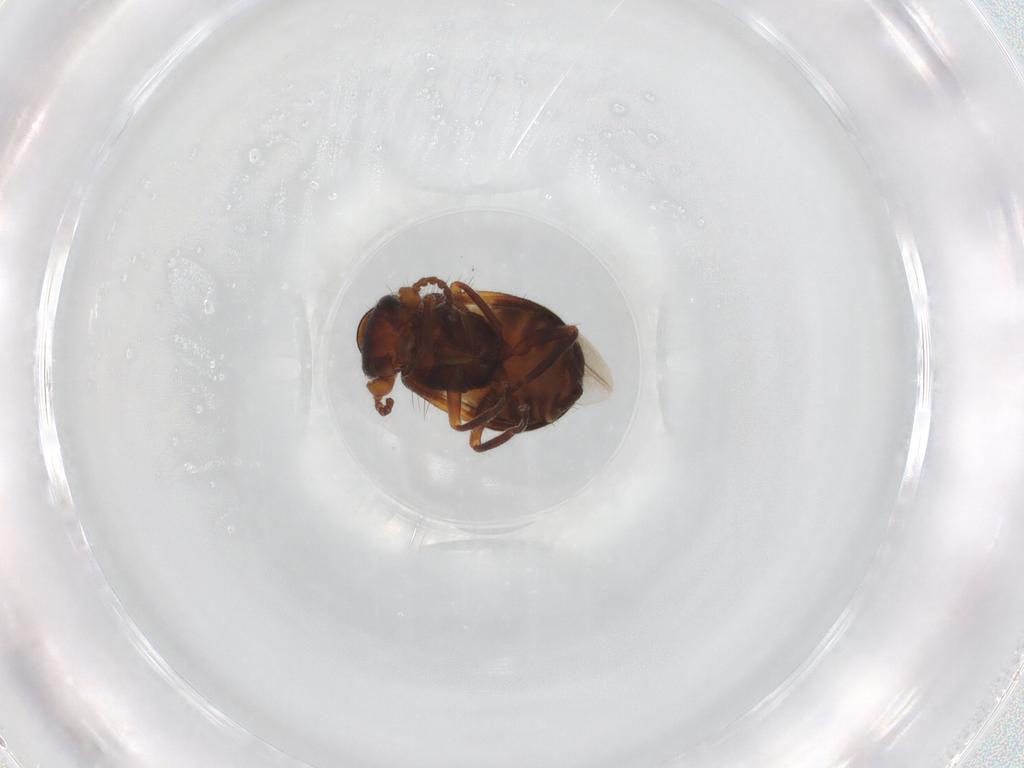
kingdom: Animalia
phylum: Arthropoda
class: Insecta
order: Coleoptera
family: Melyridae
